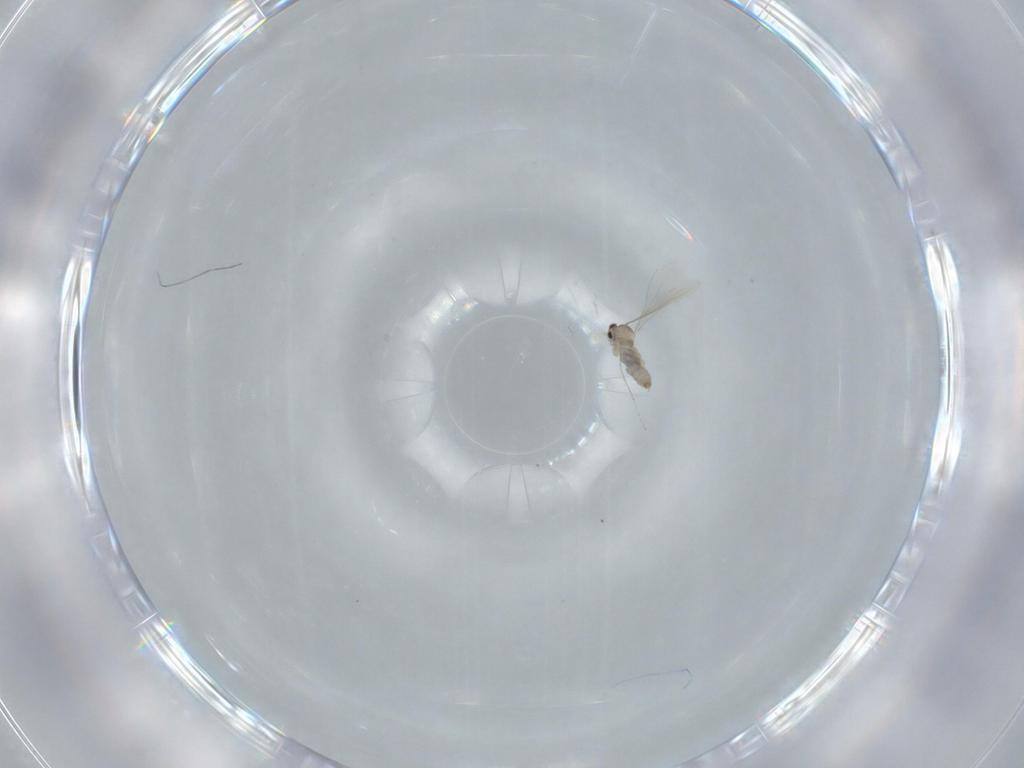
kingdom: Animalia
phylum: Arthropoda
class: Insecta
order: Diptera
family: Cecidomyiidae
